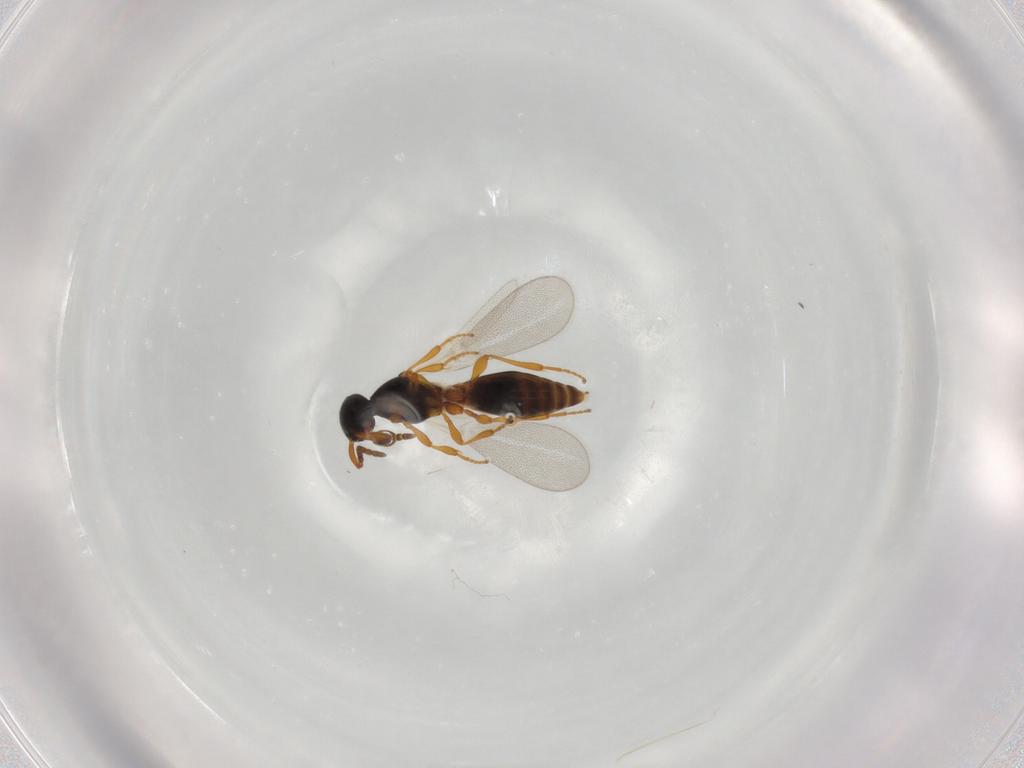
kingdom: Animalia
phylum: Arthropoda
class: Insecta
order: Hymenoptera
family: Platygastridae
